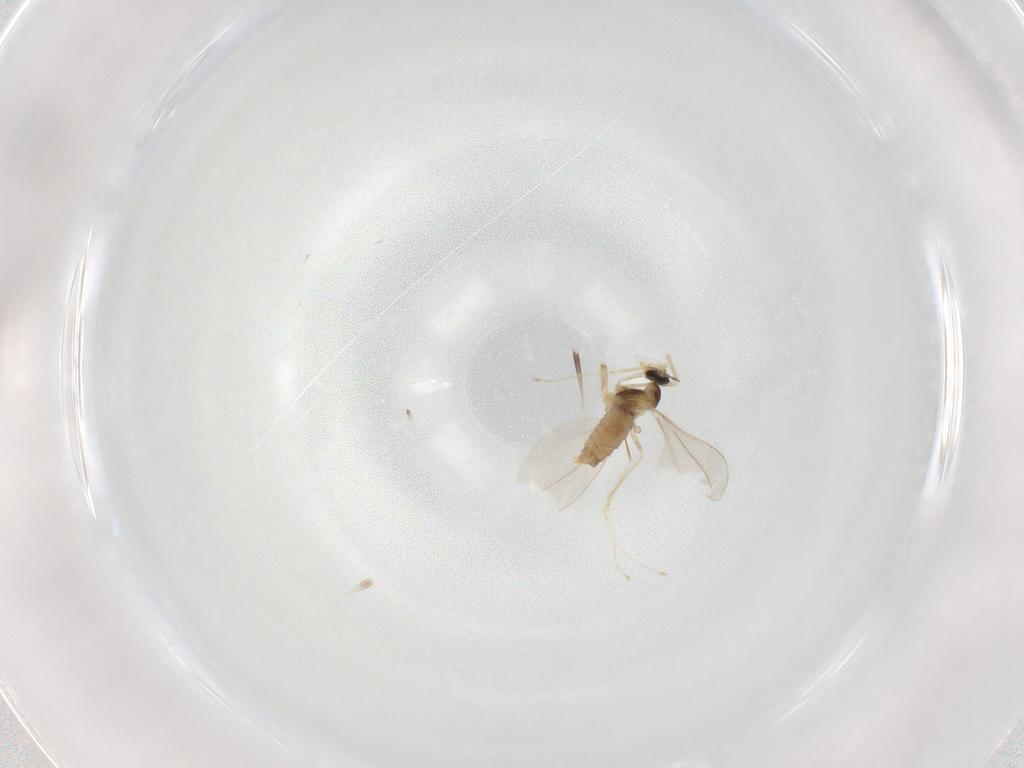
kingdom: Animalia
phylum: Arthropoda
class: Insecta
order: Diptera
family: Cecidomyiidae
